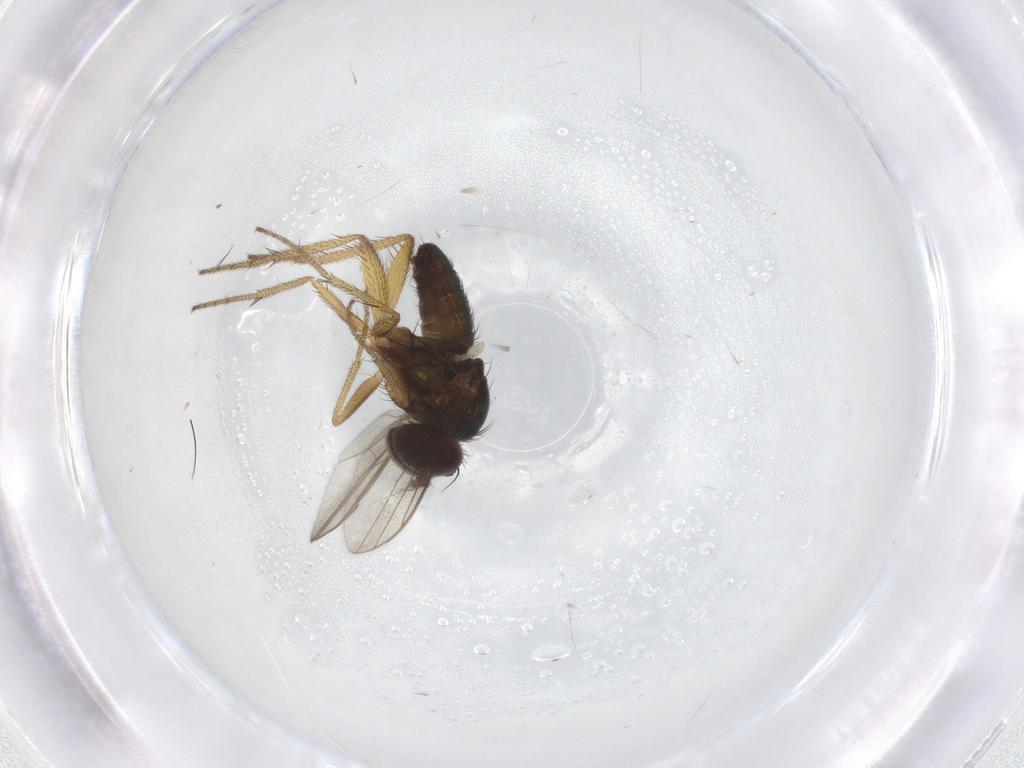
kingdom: Animalia
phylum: Arthropoda
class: Insecta
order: Diptera
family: Dolichopodidae
